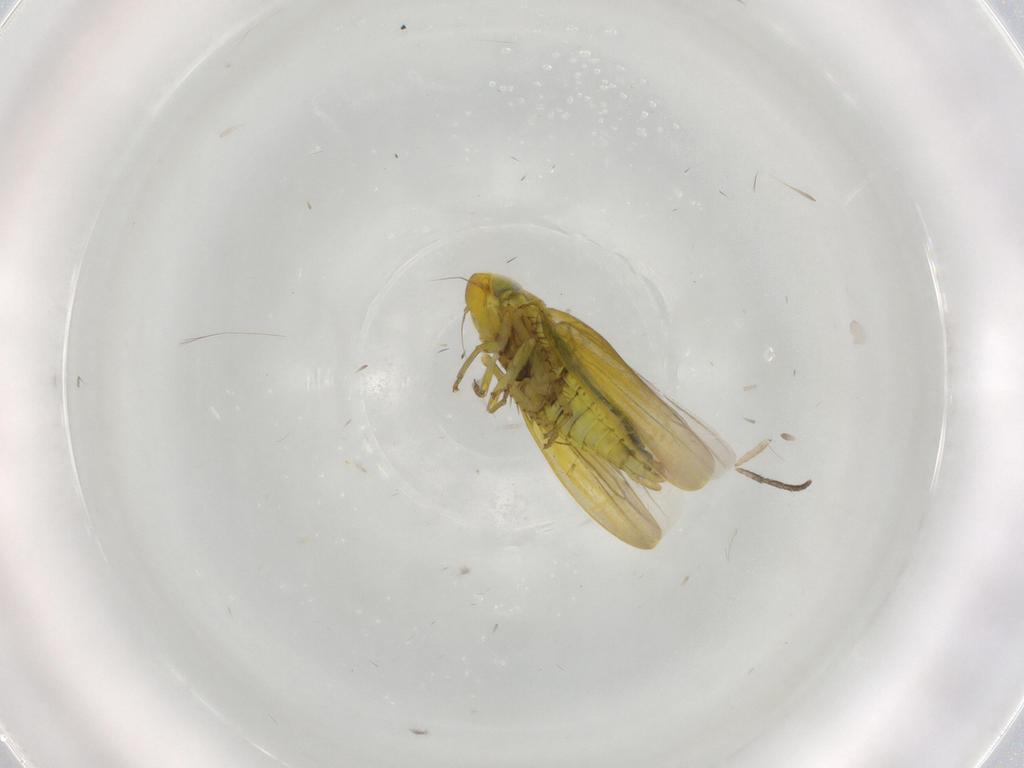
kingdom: Animalia
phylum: Arthropoda
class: Insecta
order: Hemiptera
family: Cicadellidae
